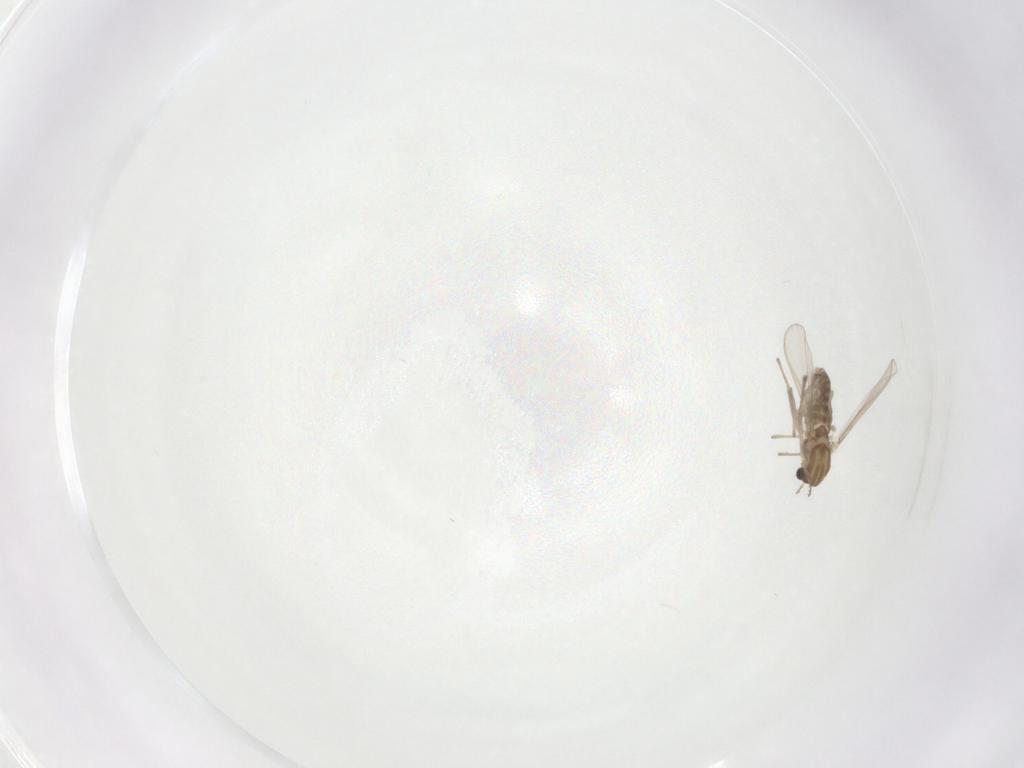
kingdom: Animalia
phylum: Arthropoda
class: Insecta
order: Diptera
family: Chironomidae
